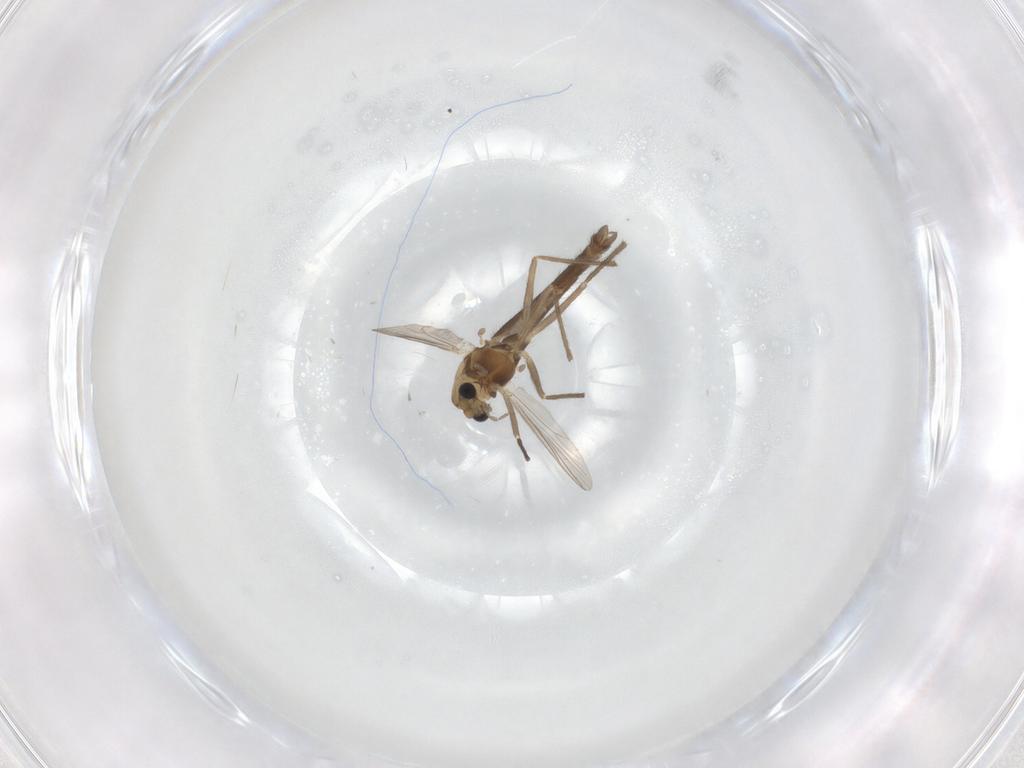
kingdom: Animalia
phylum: Arthropoda
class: Insecta
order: Diptera
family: Chironomidae
